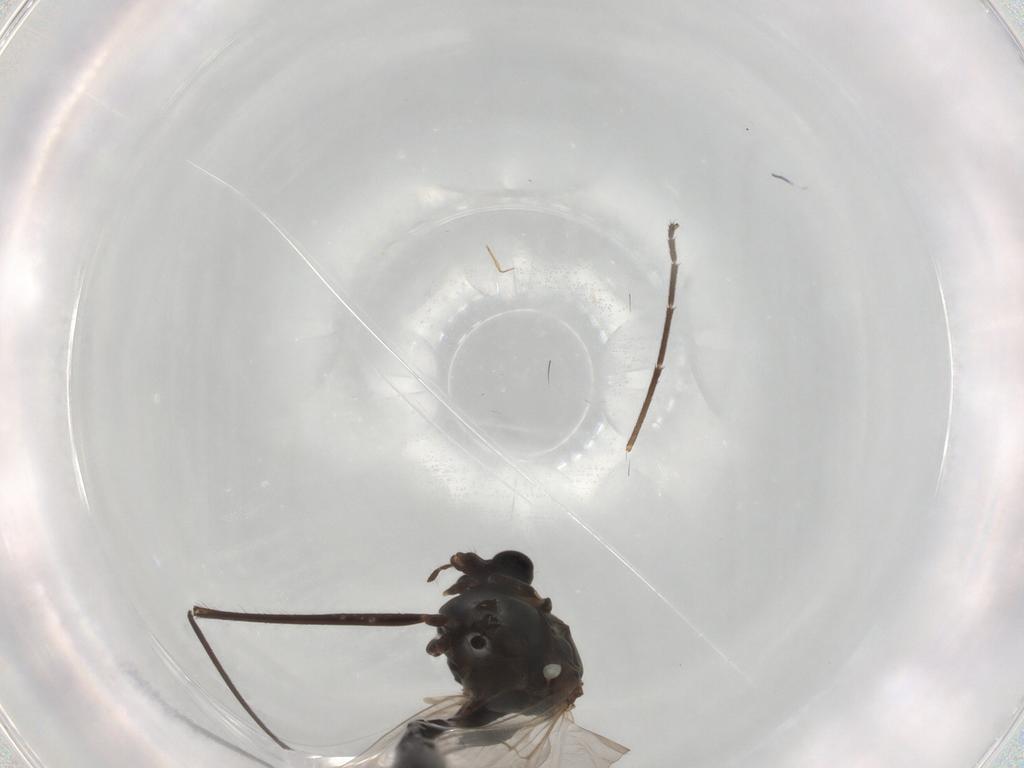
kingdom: Animalia
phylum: Arthropoda
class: Insecta
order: Diptera
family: Chironomidae
